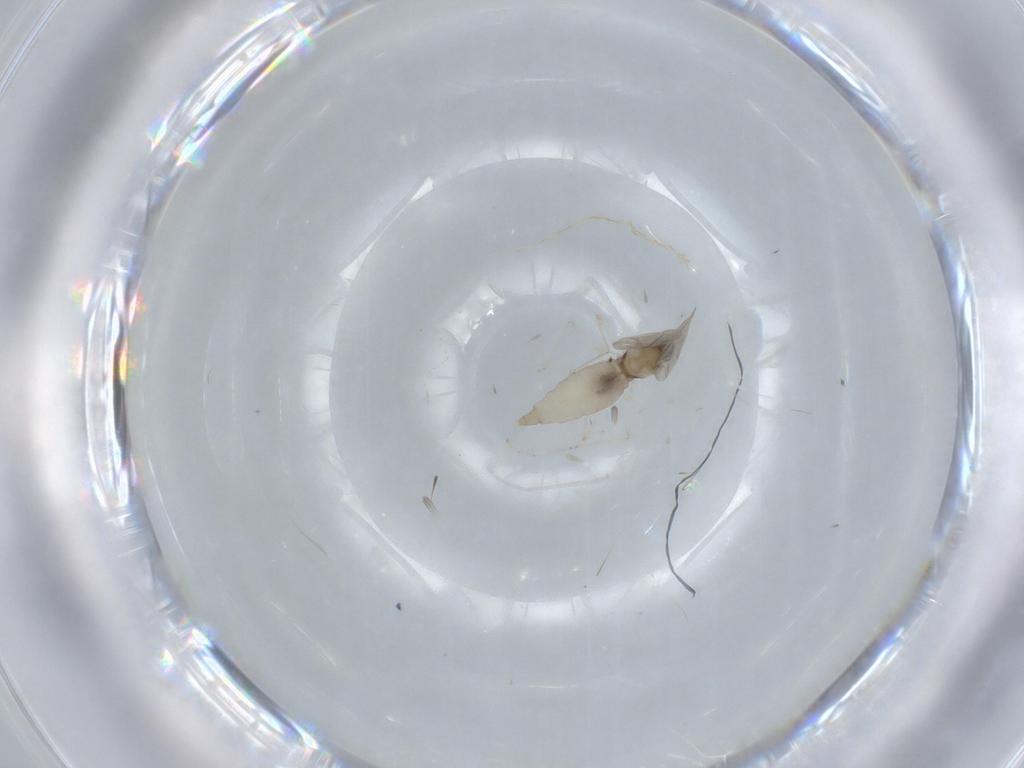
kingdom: Animalia
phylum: Arthropoda
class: Insecta
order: Diptera
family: Cecidomyiidae
